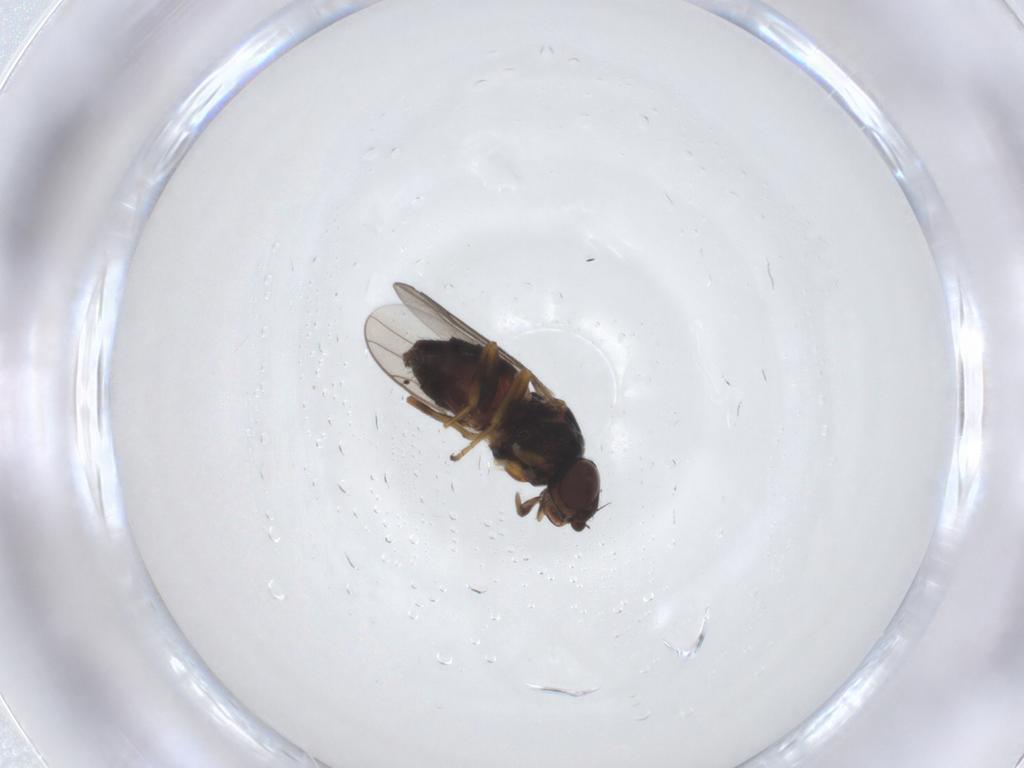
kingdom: Animalia
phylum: Arthropoda
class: Insecta
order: Diptera
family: Chloropidae
